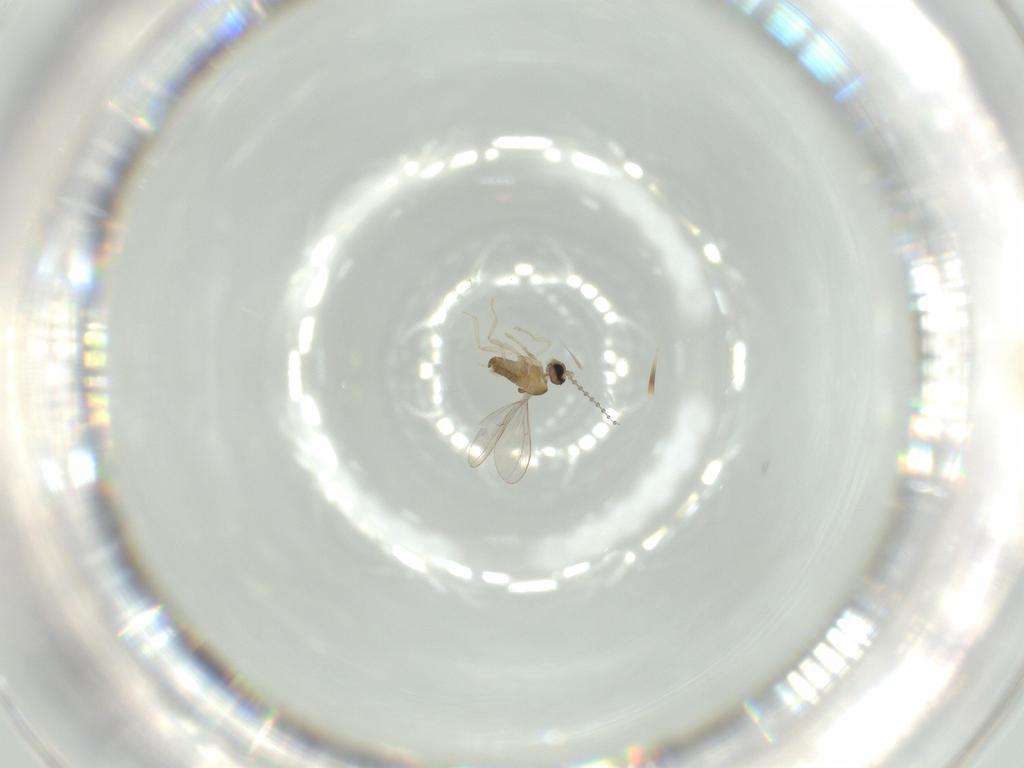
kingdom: Animalia
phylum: Arthropoda
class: Insecta
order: Diptera
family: Cecidomyiidae
